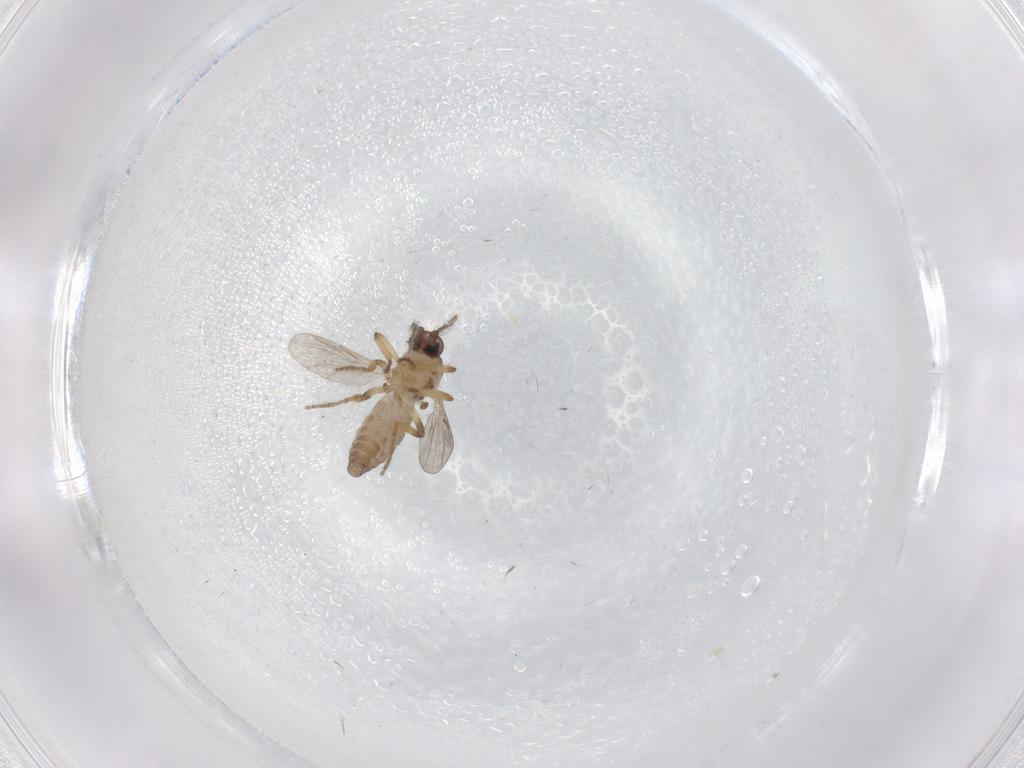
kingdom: Animalia
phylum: Arthropoda
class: Insecta
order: Diptera
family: Ceratopogonidae
